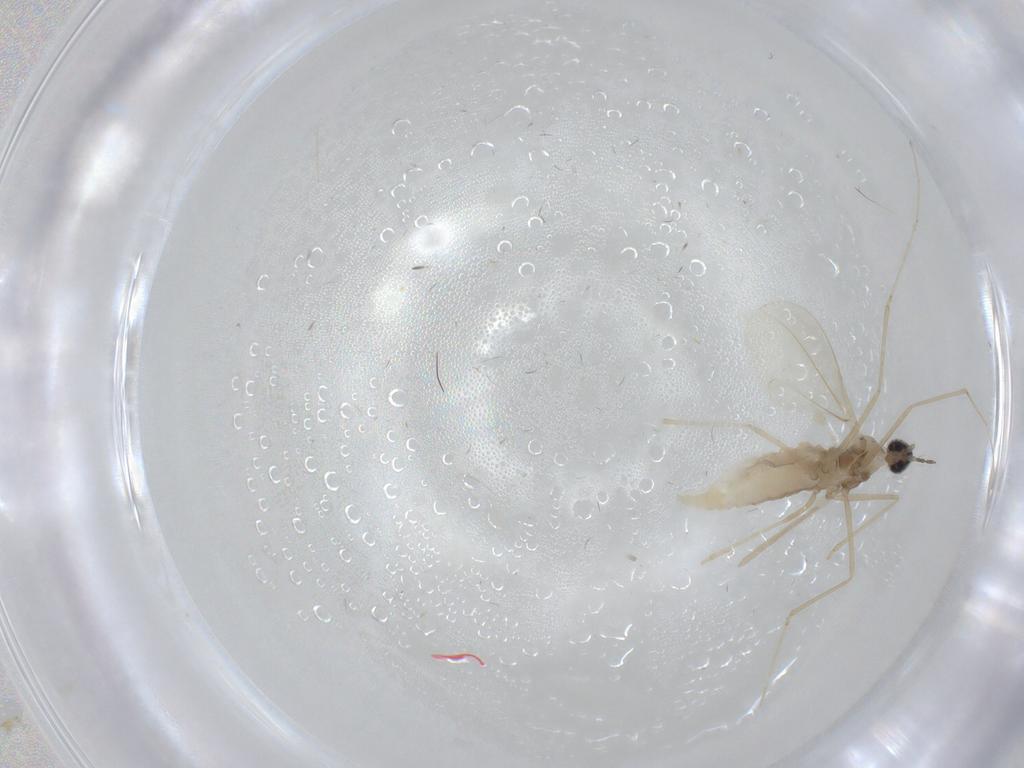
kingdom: Animalia
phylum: Arthropoda
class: Insecta
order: Diptera
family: Cecidomyiidae
